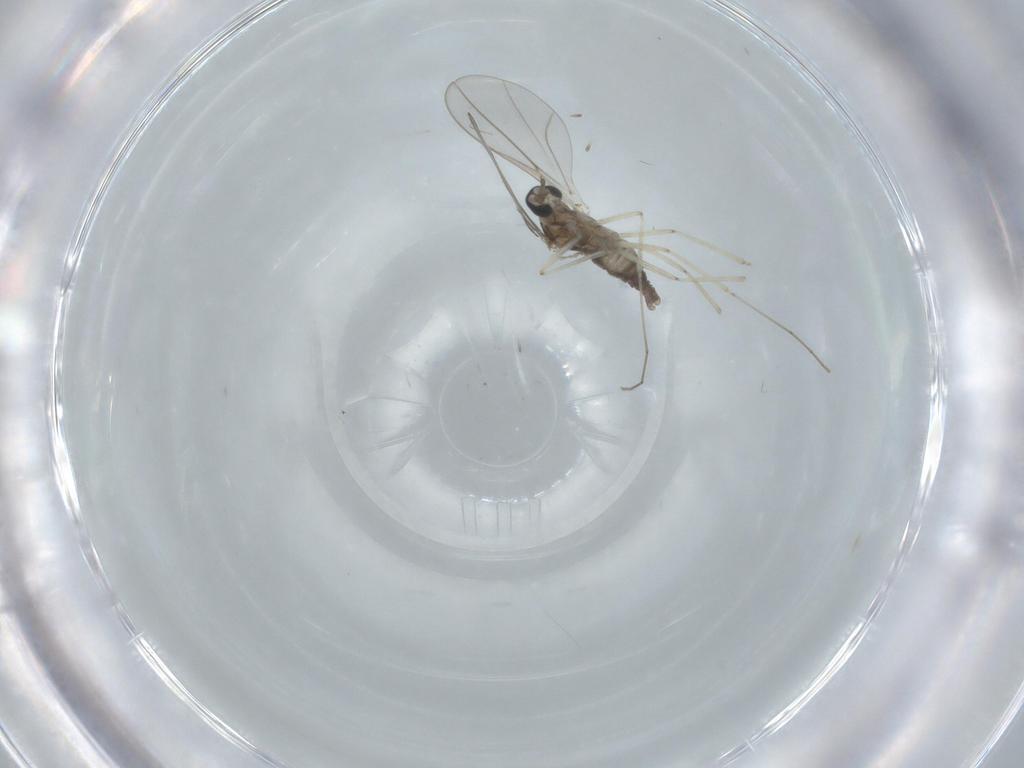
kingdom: Animalia
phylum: Arthropoda
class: Insecta
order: Diptera
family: Cecidomyiidae
